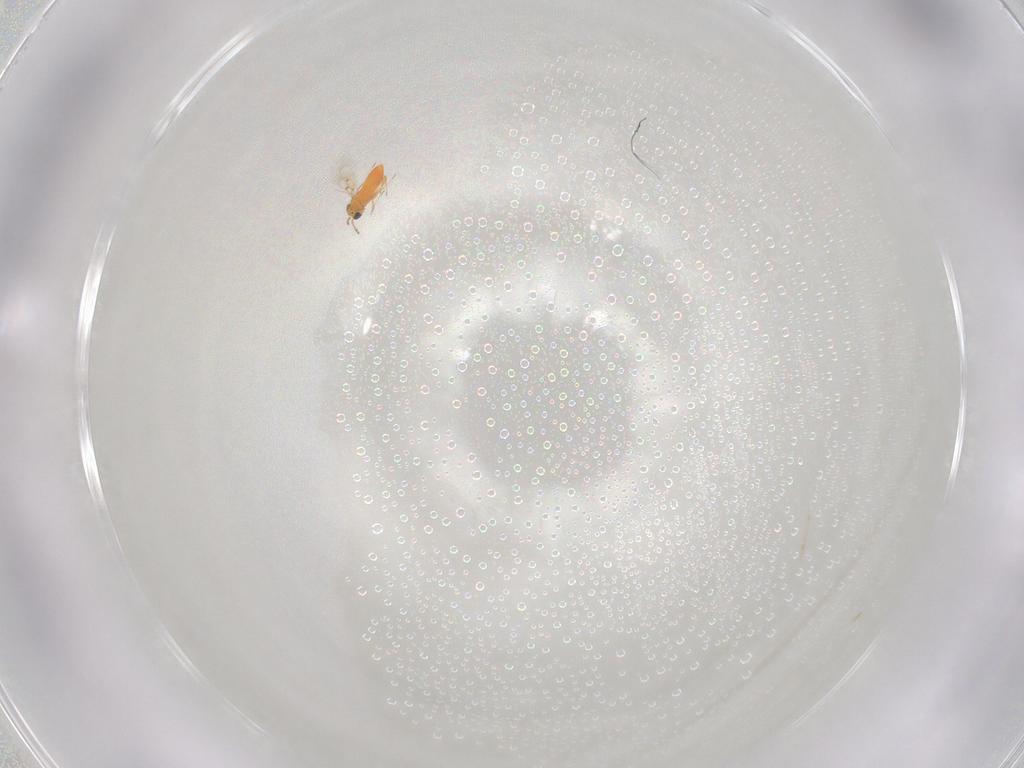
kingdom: Animalia
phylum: Arthropoda
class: Insecta
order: Hymenoptera
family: Trichogrammatidae
